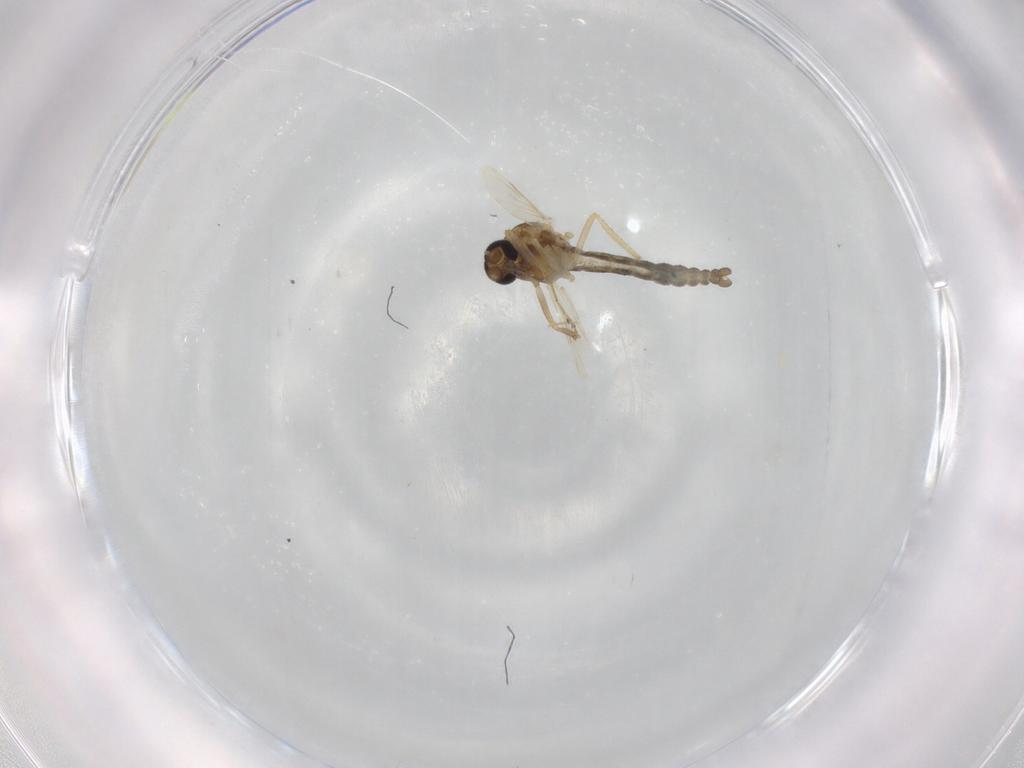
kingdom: Animalia
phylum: Arthropoda
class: Insecta
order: Diptera
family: Ceratopogonidae
